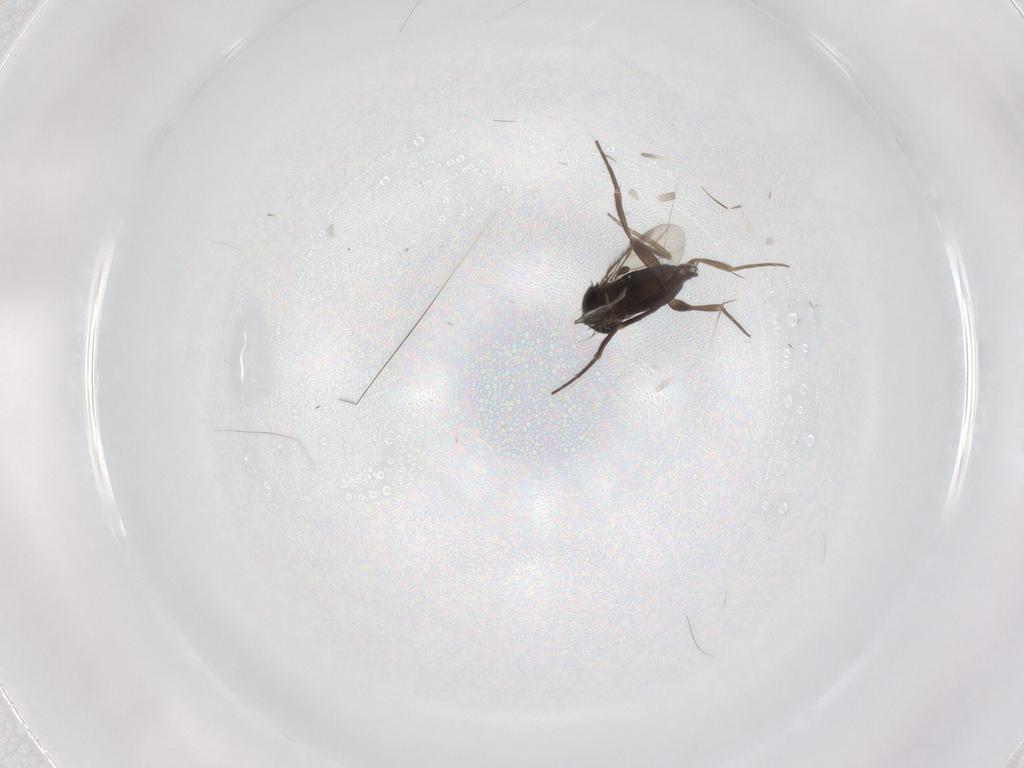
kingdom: Animalia
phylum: Arthropoda
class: Insecta
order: Diptera
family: Phoridae
